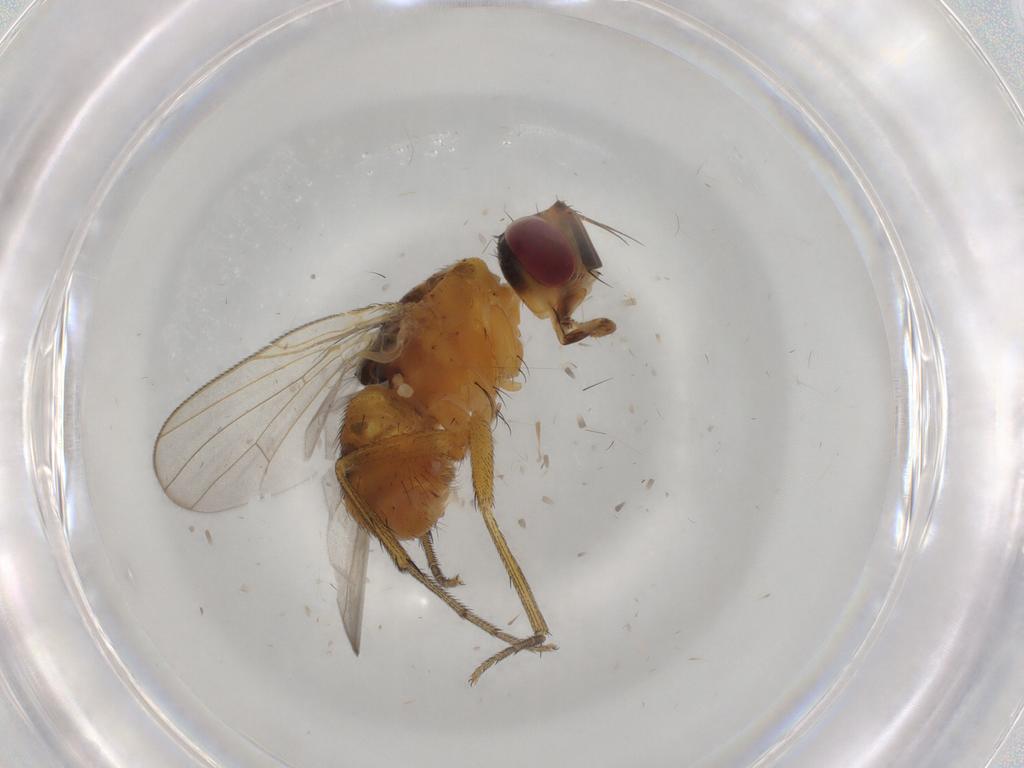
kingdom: Animalia
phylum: Arthropoda
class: Insecta
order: Diptera
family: Muscidae
